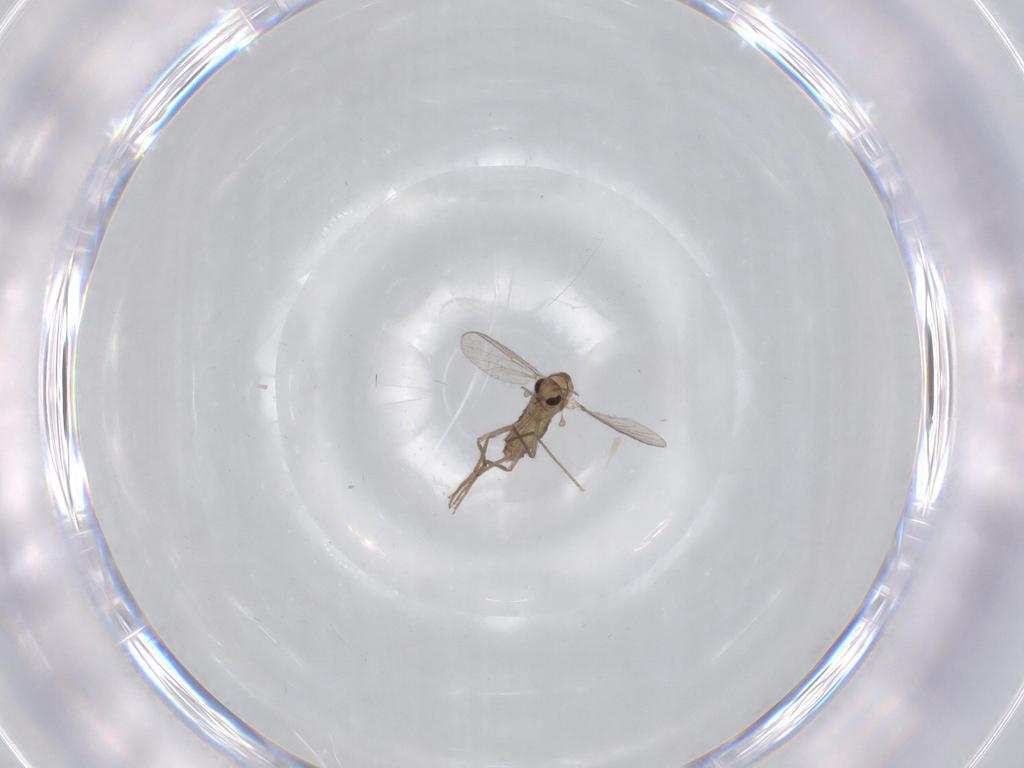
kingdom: Animalia
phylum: Arthropoda
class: Insecta
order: Diptera
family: Chironomidae
